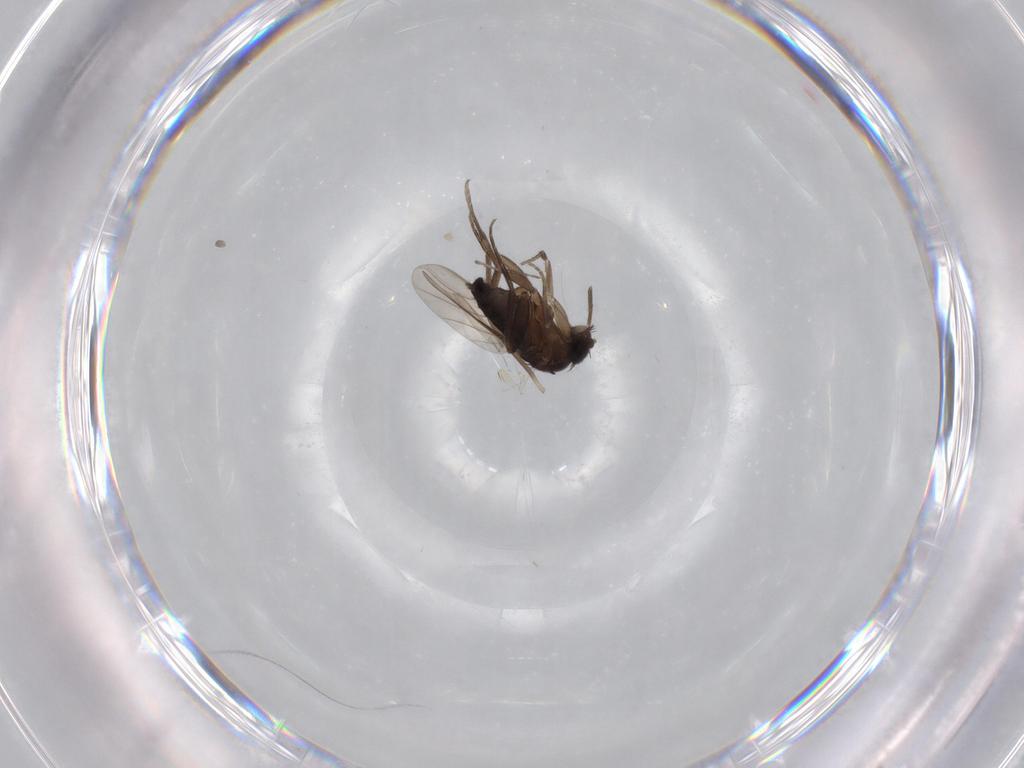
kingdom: Animalia
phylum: Arthropoda
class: Insecta
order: Diptera
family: Phoridae
